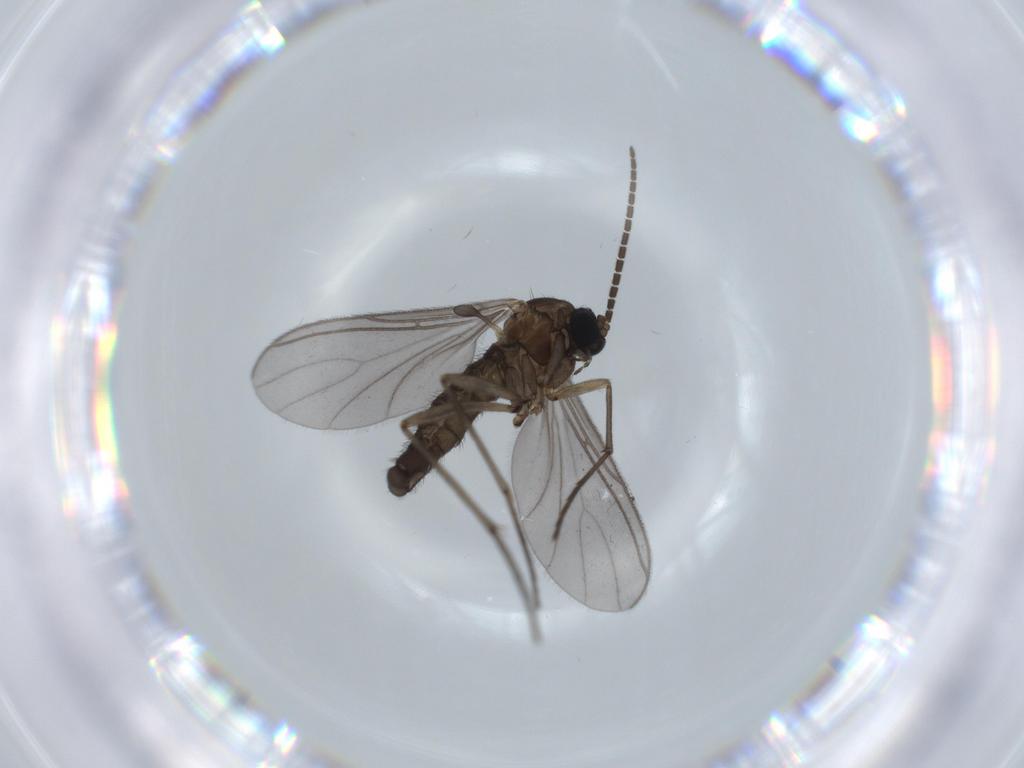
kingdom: Animalia
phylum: Arthropoda
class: Insecta
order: Diptera
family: Sciaridae
